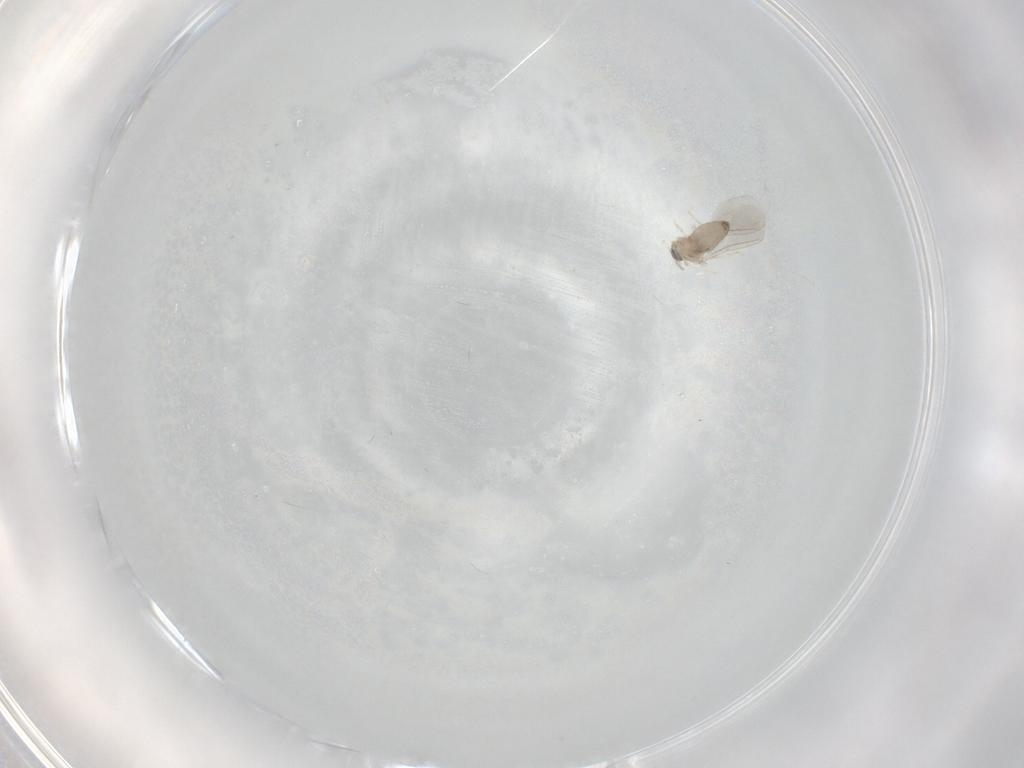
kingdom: Animalia
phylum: Arthropoda
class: Insecta
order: Diptera
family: Cecidomyiidae
